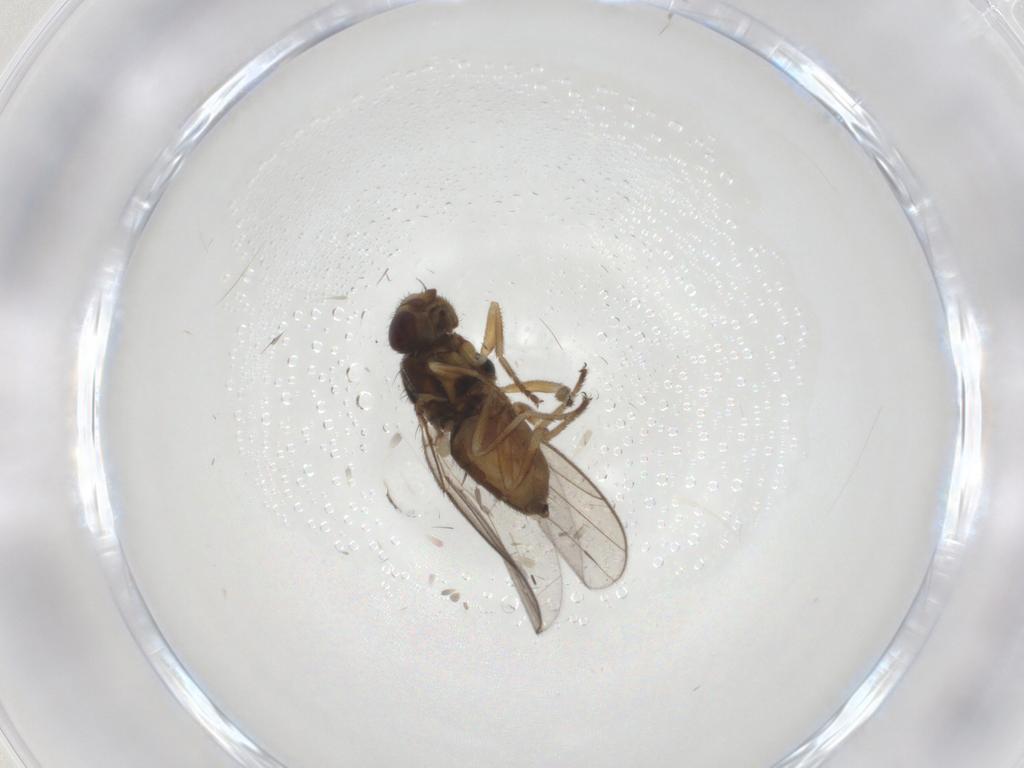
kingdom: Animalia
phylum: Arthropoda
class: Insecta
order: Diptera
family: Chloropidae
